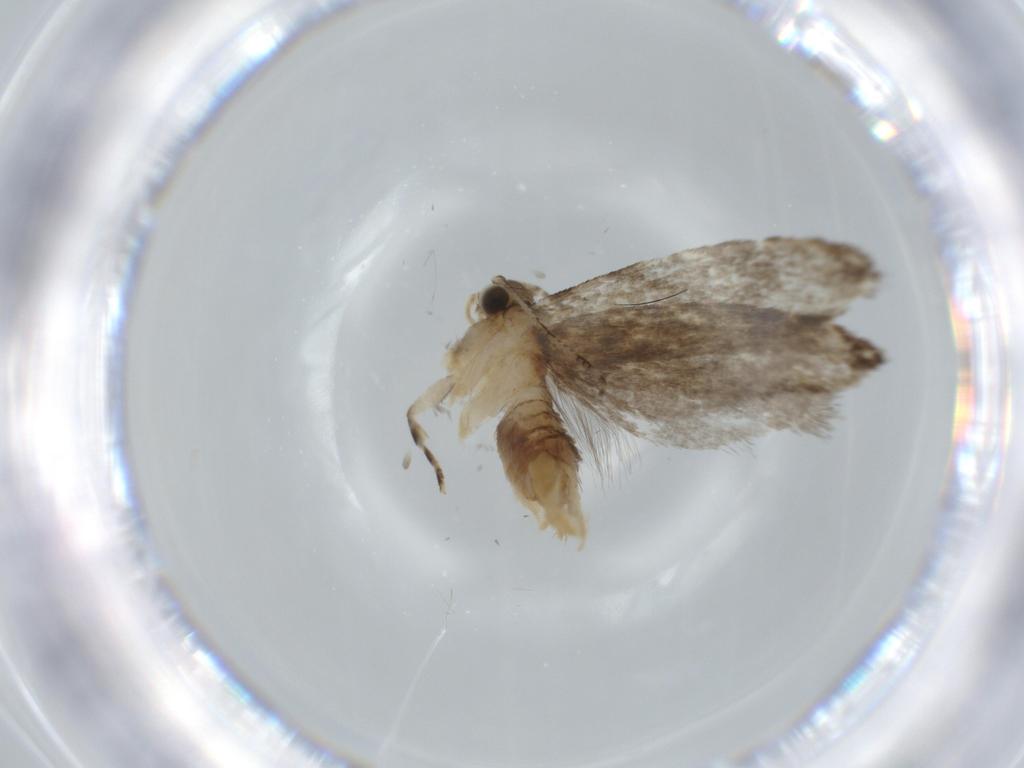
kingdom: Animalia
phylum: Arthropoda
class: Insecta
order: Lepidoptera
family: Tineidae
